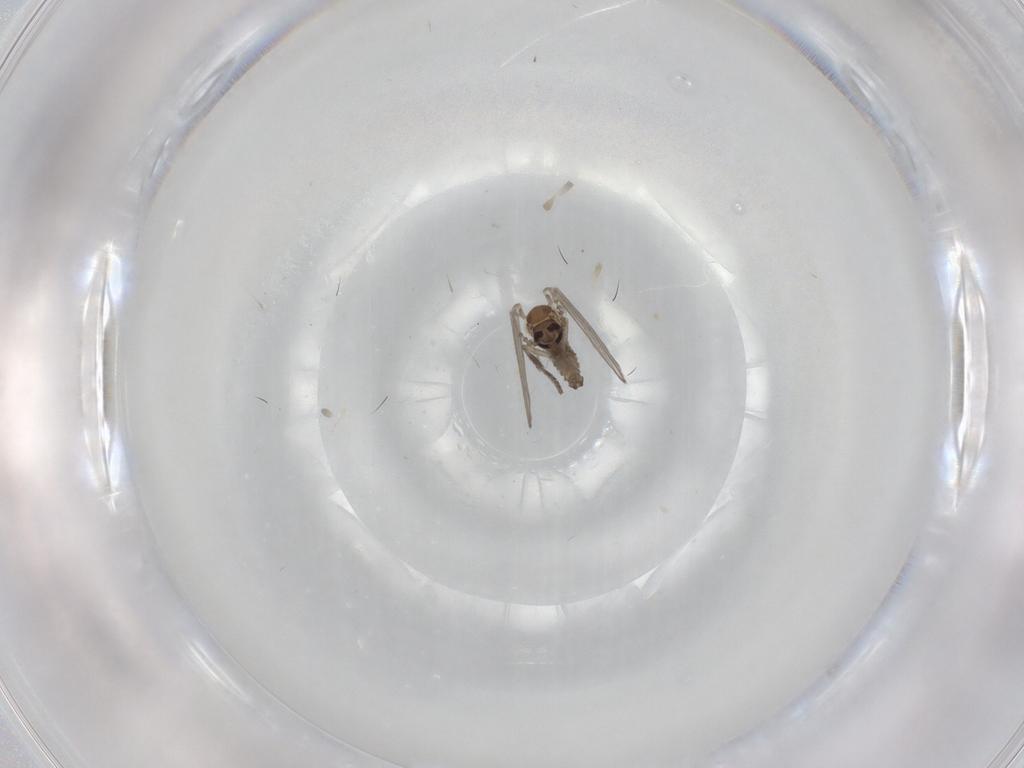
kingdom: Animalia
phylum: Arthropoda
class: Insecta
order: Diptera
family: Psychodidae
